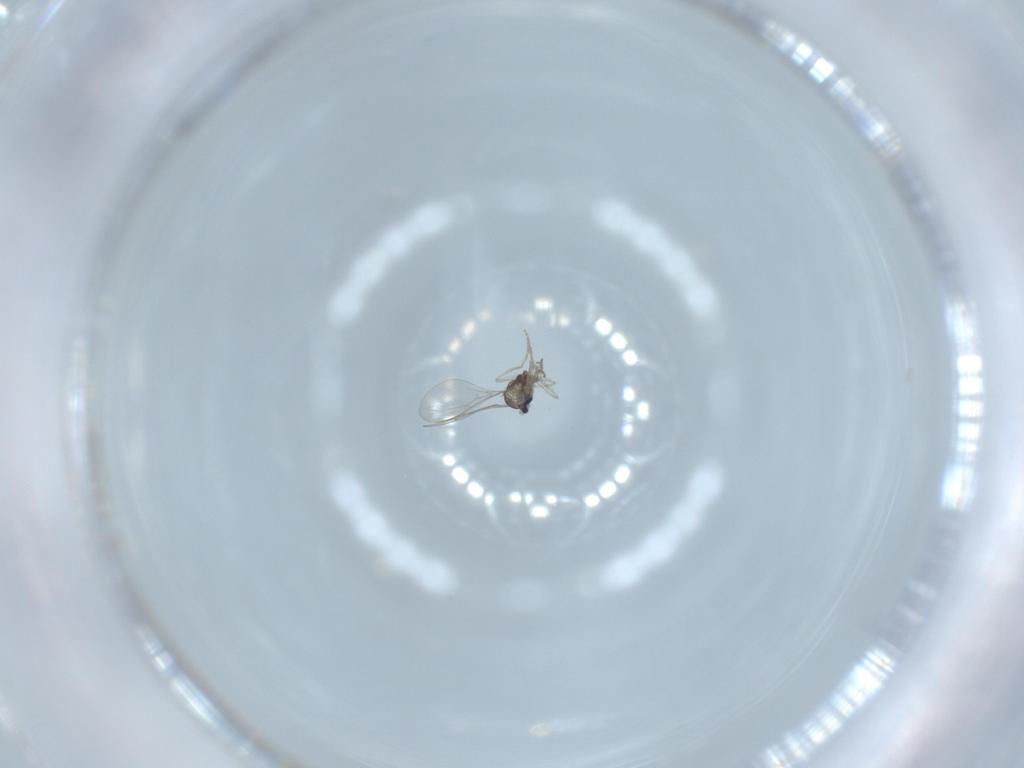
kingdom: Animalia
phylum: Arthropoda
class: Insecta
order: Diptera
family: Cecidomyiidae
